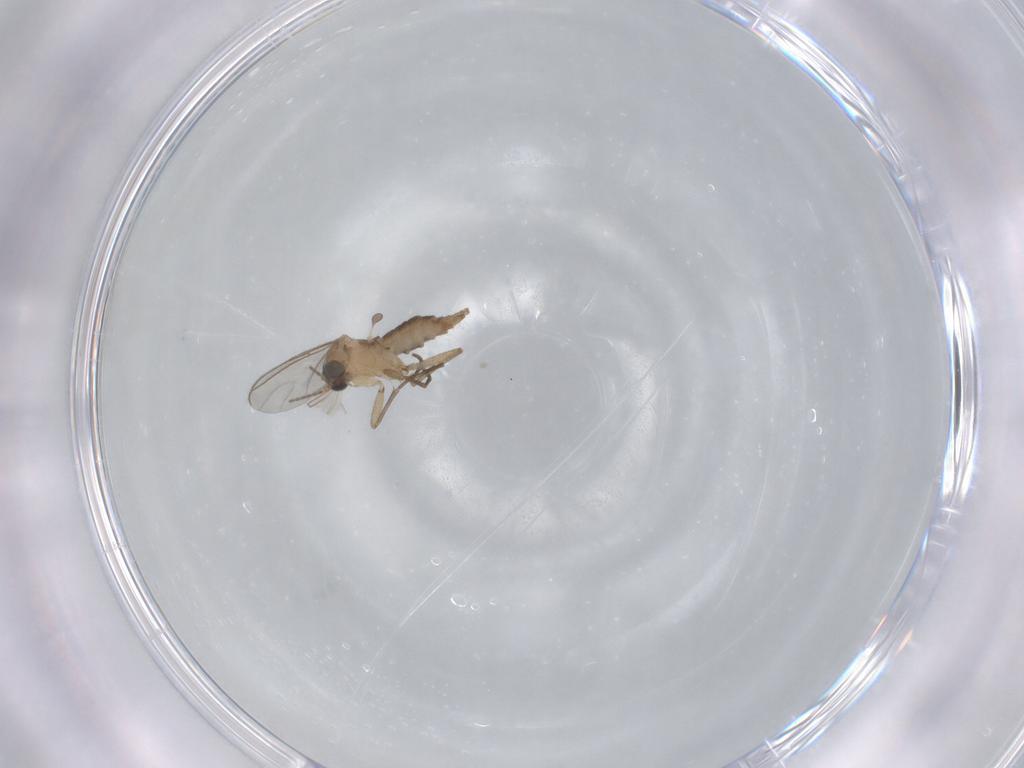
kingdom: Animalia
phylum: Arthropoda
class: Insecta
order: Diptera
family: Sciaridae
